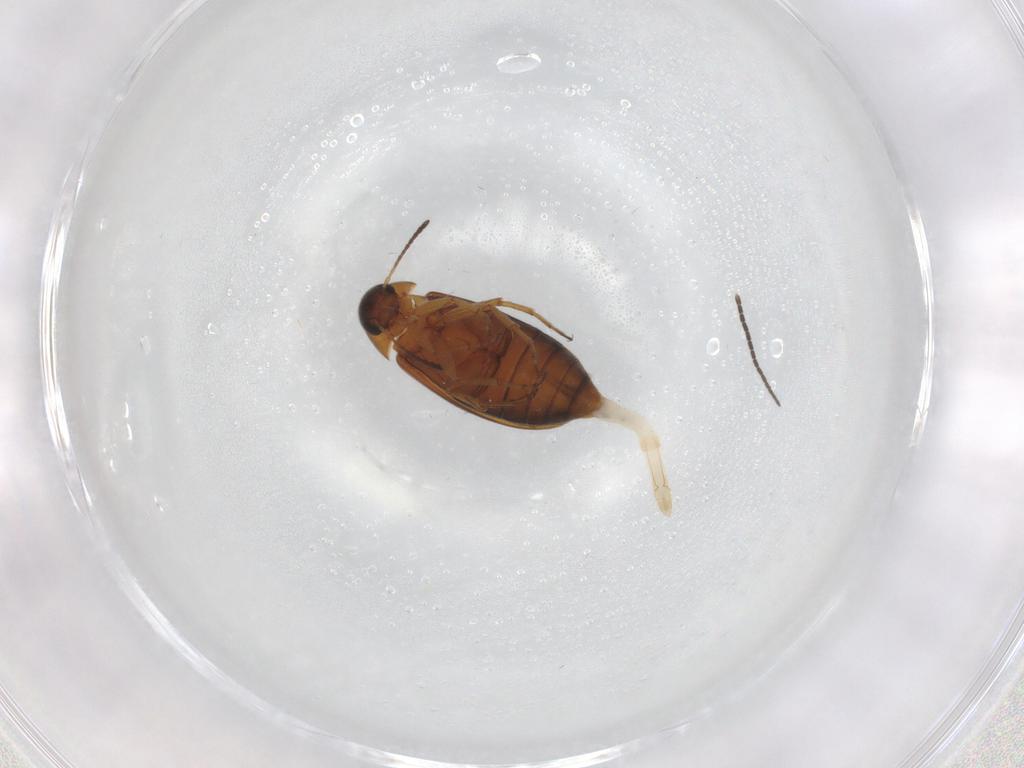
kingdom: Animalia
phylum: Arthropoda
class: Insecta
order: Coleoptera
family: Scraptiidae
